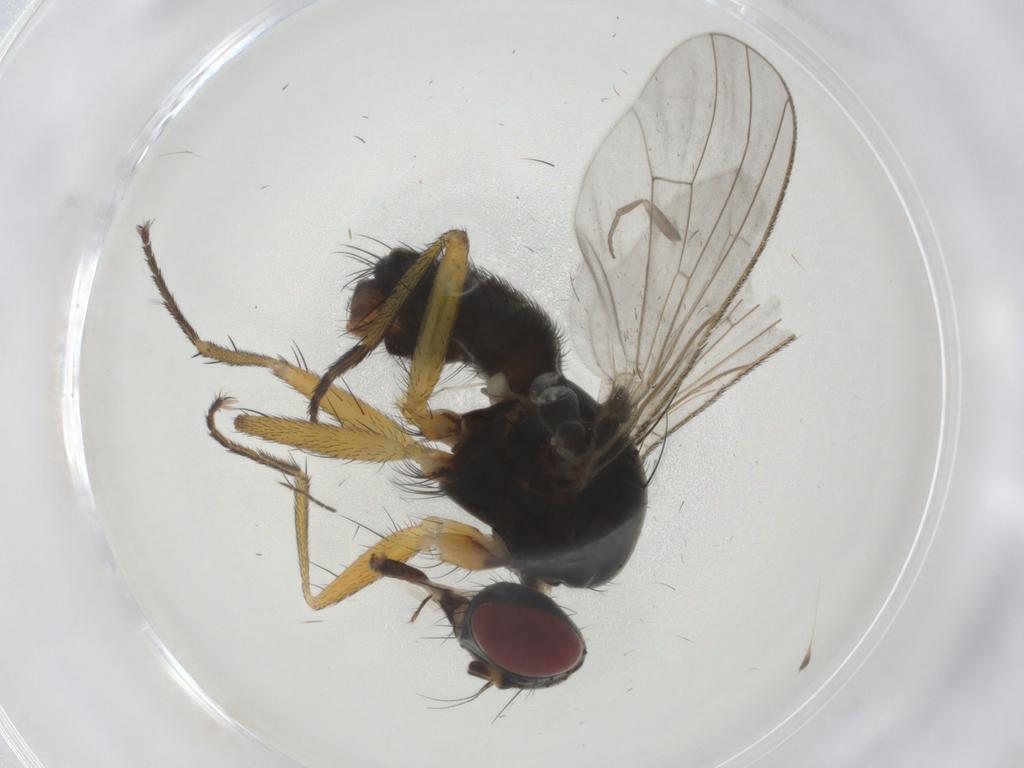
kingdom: Animalia
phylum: Arthropoda
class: Insecta
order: Diptera
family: Muscidae
